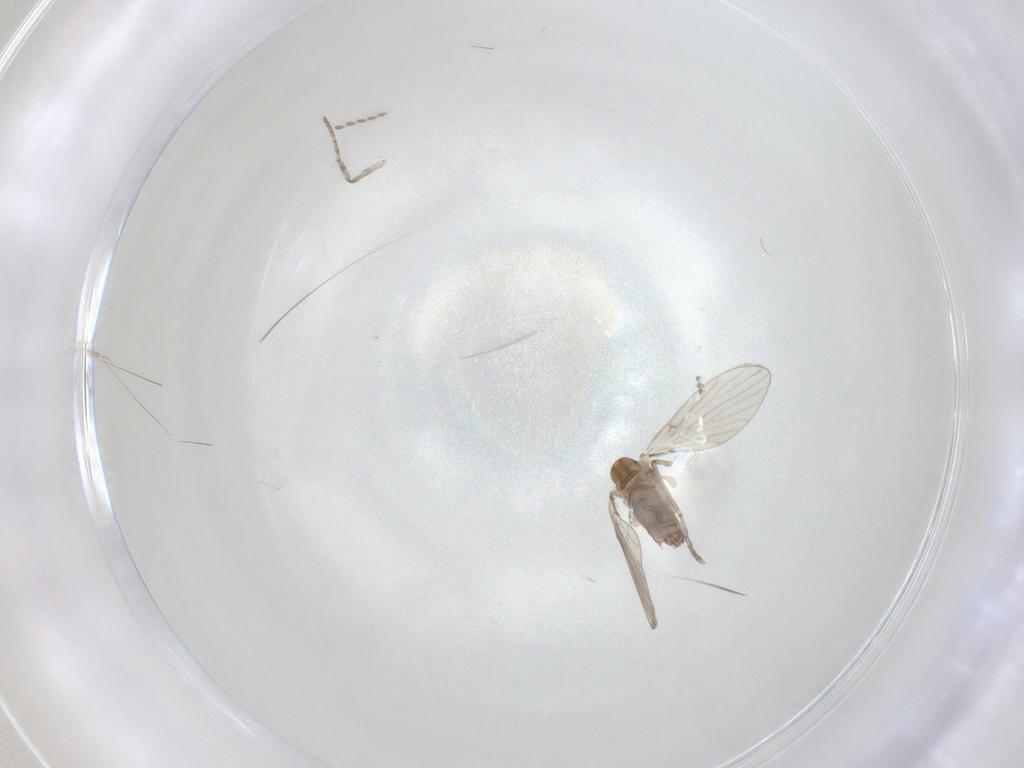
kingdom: Animalia
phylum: Arthropoda
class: Insecta
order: Diptera
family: Psychodidae
